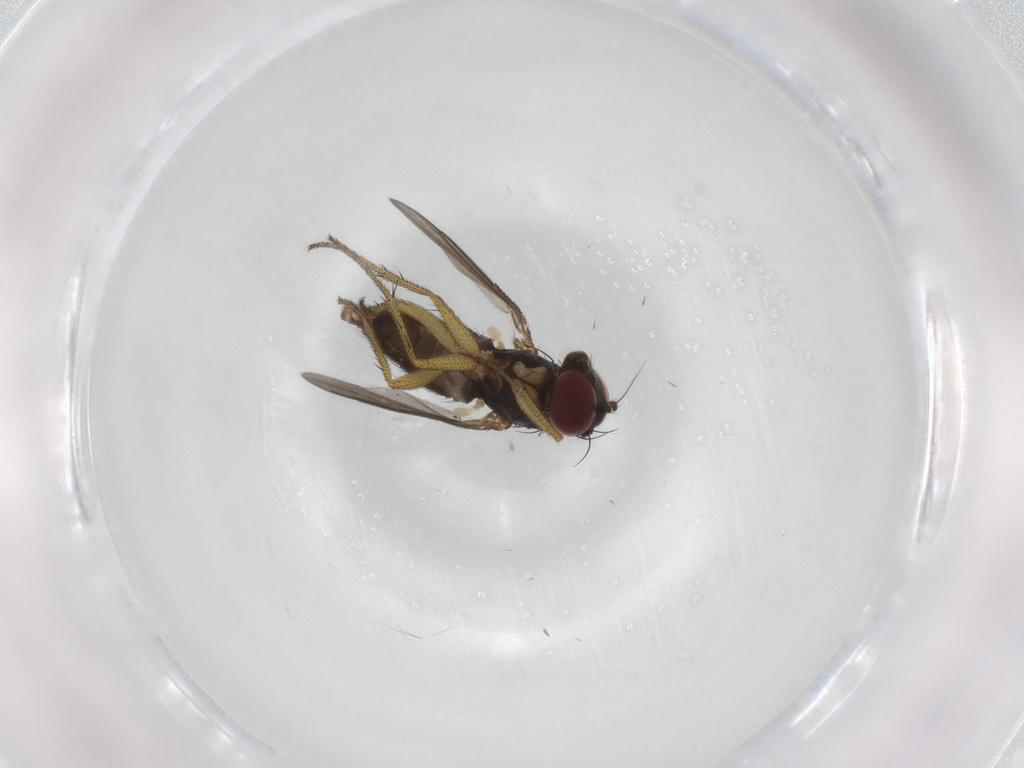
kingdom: Animalia
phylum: Arthropoda
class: Insecta
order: Diptera
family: Dolichopodidae
